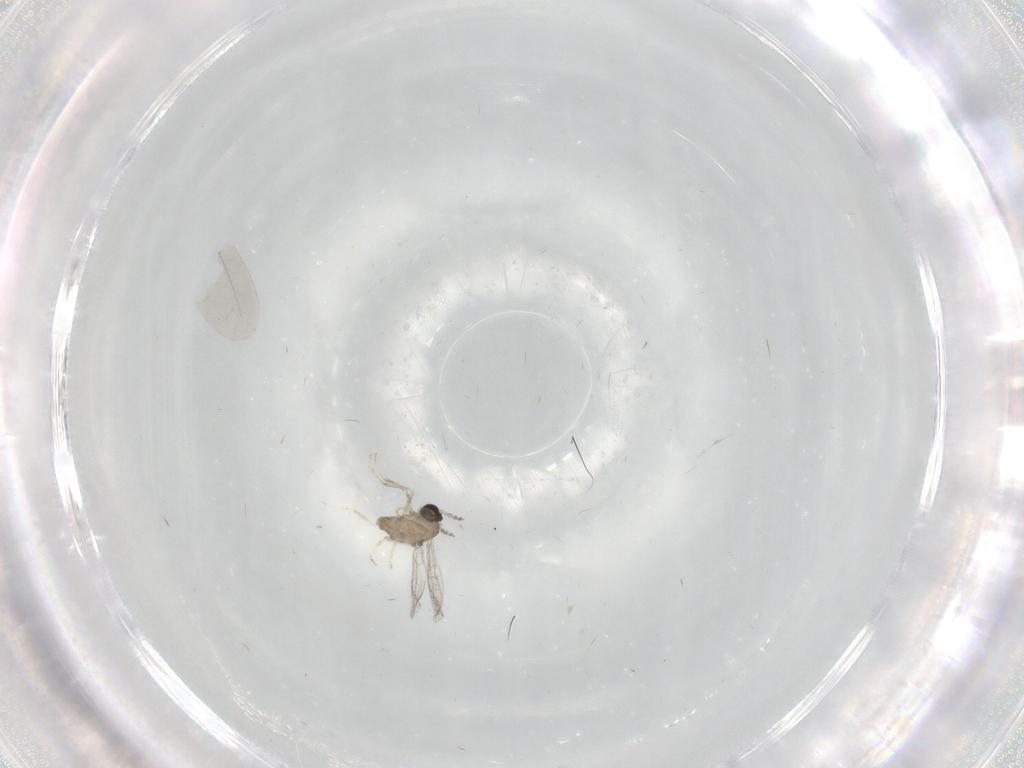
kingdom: Animalia
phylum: Arthropoda
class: Insecta
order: Diptera
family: Cecidomyiidae
